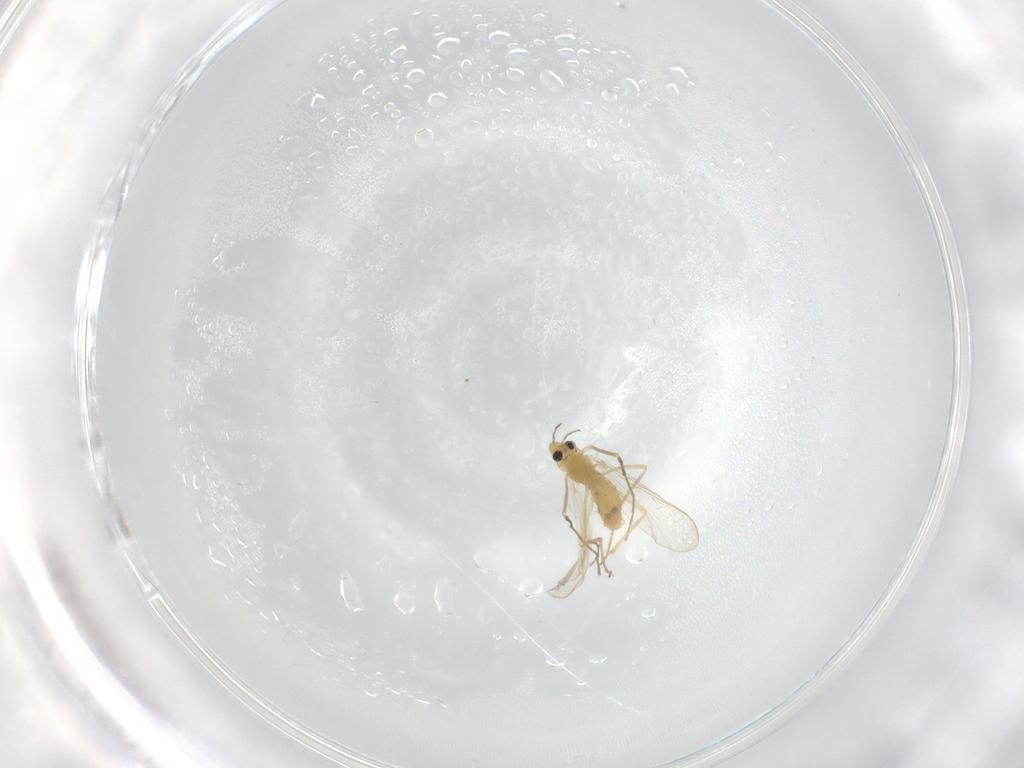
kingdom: Animalia
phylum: Arthropoda
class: Insecta
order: Diptera
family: Chironomidae
